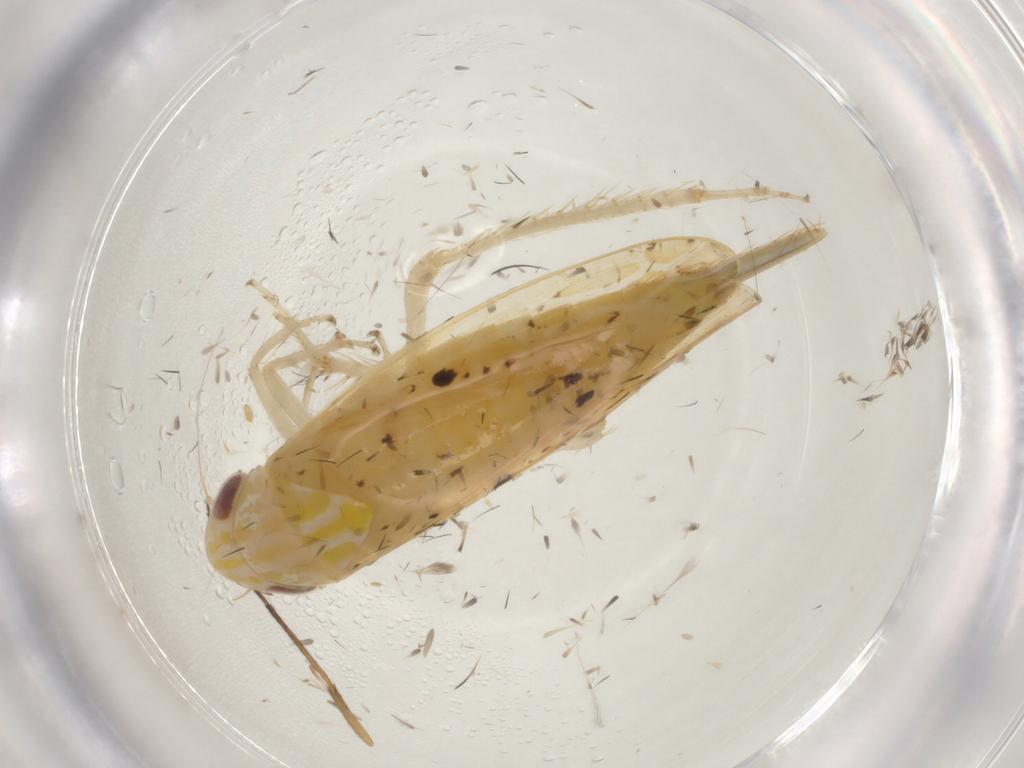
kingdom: Animalia
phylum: Arthropoda
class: Insecta
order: Hemiptera
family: Cicadellidae
